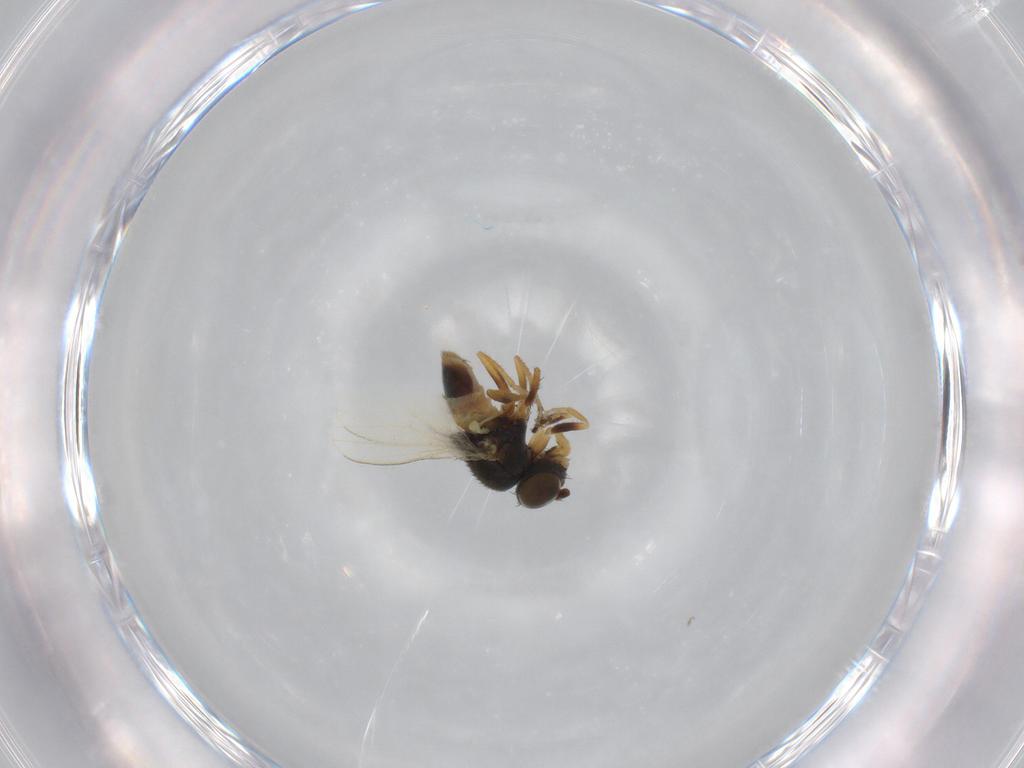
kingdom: Animalia
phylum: Arthropoda
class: Insecta
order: Diptera
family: Ephydridae
